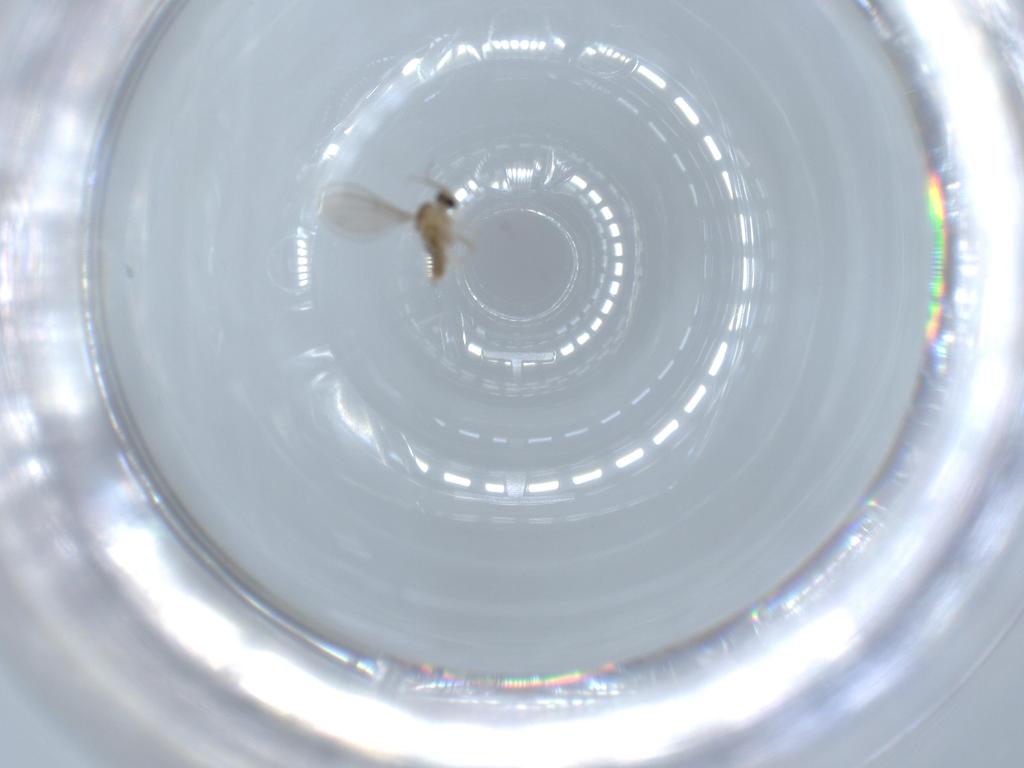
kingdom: Animalia
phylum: Arthropoda
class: Insecta
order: Diptera
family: Cecidomyiidae
